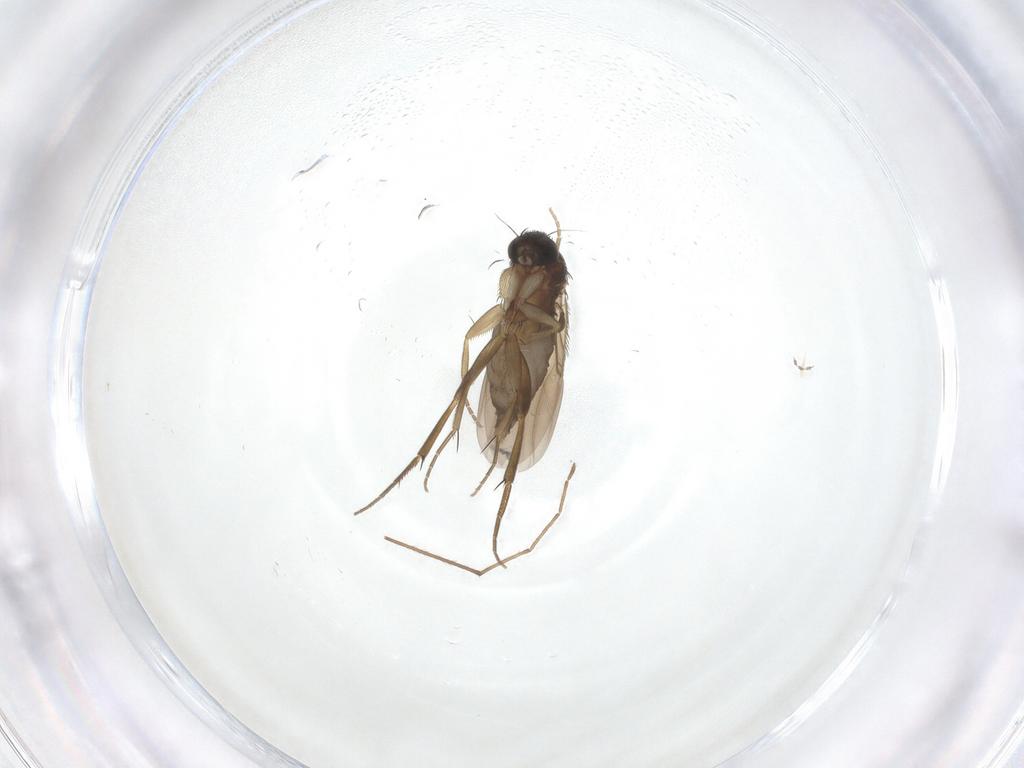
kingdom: Animalia
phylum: Arthropoda
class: Insecta
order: Diptera
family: Phoridae
